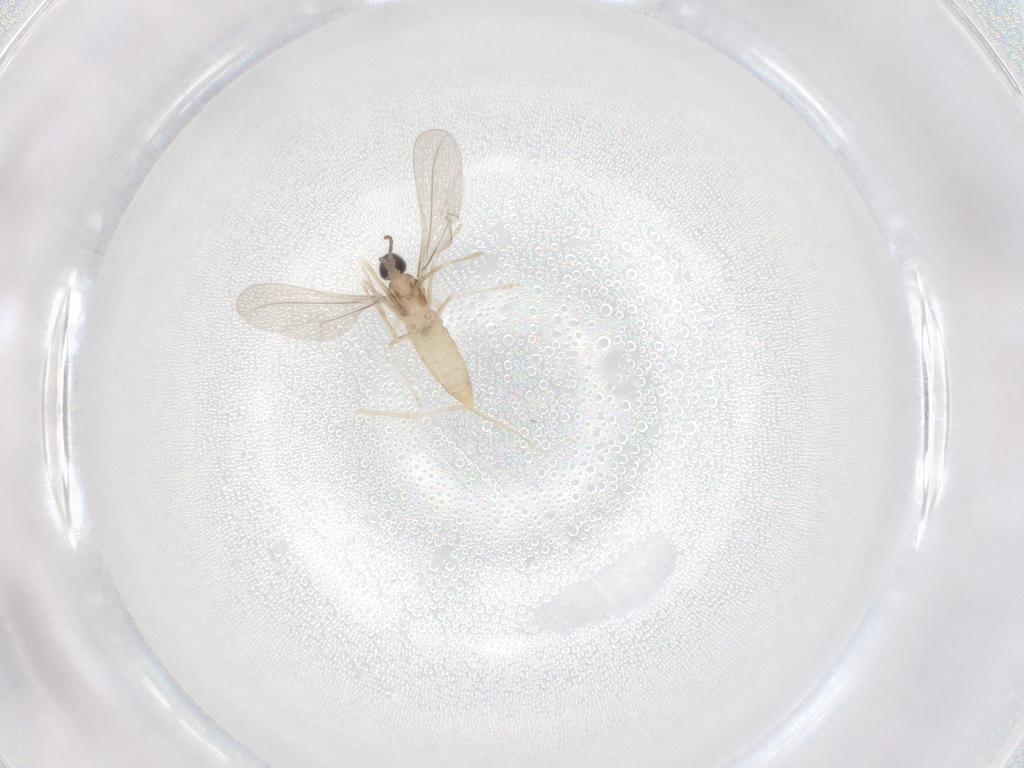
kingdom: Animalia
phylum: Arthropoda
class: Insecta
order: Diptera
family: Cecidomyiidae
